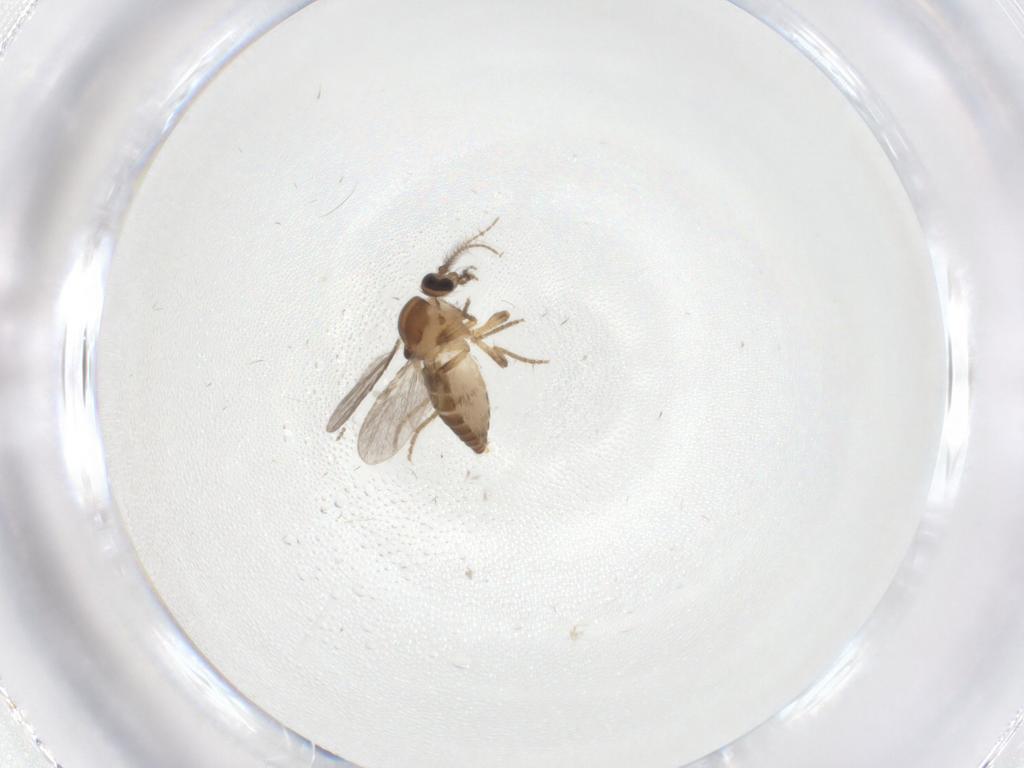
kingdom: Animalia
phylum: Arthropoda
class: Insecta
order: Diptera
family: Ceratopogonidae
